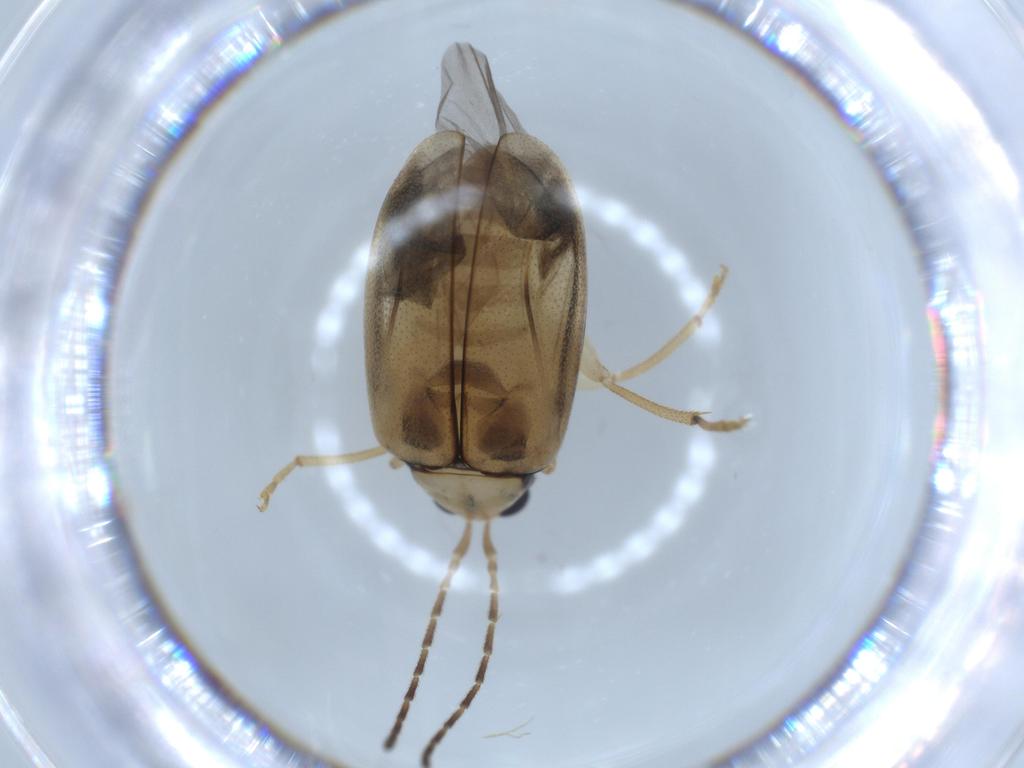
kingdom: Animalia
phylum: Arthropoda
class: Insecta
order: Coleoptera
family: Chrysomelidae
